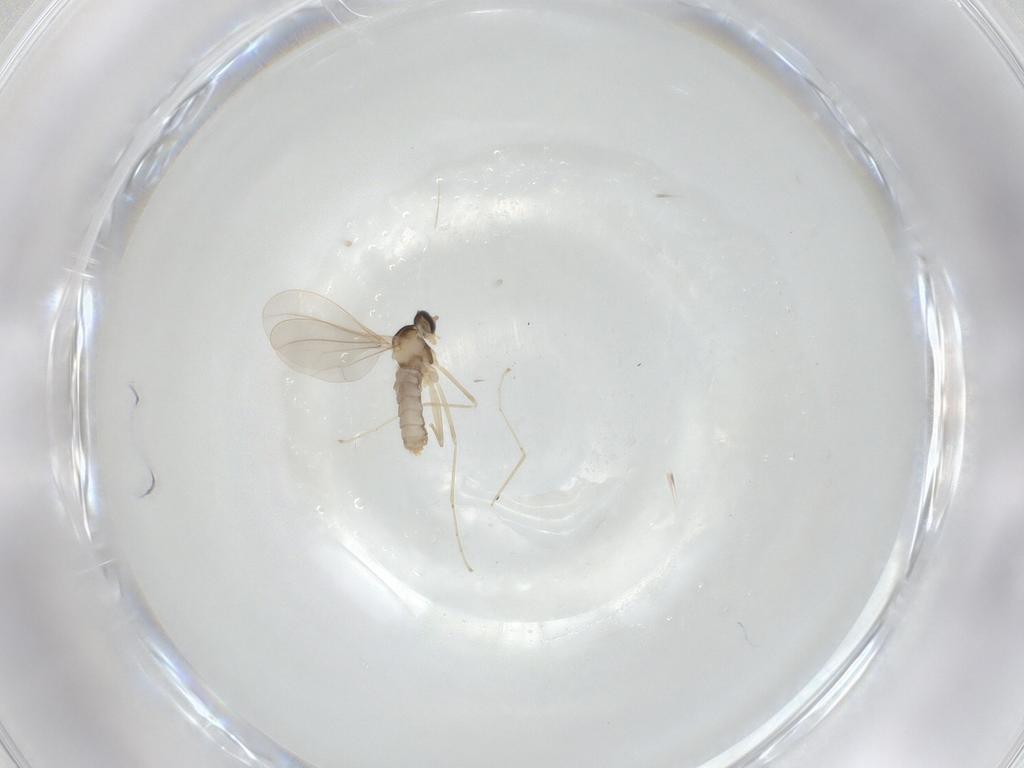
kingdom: Animalia
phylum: Arthropoda
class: Insecta
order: Diptera
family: Cecidomyiidae
